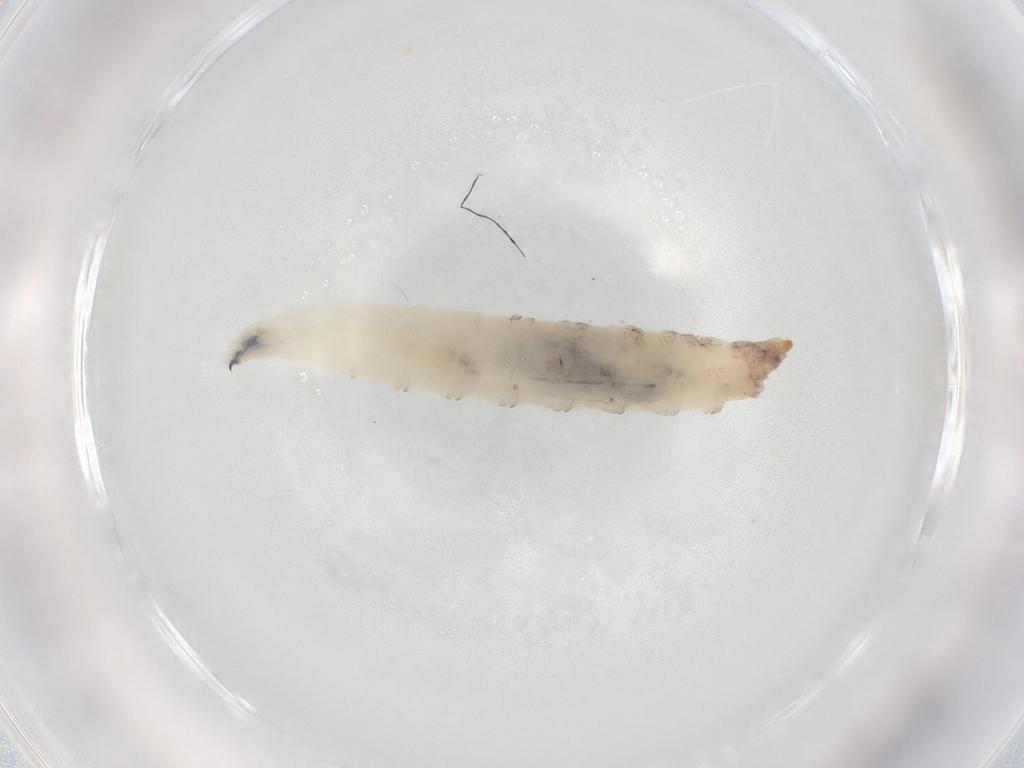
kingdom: Animalia
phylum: Arthropoda
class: Insecta
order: Diptera
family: Drosophilidae
